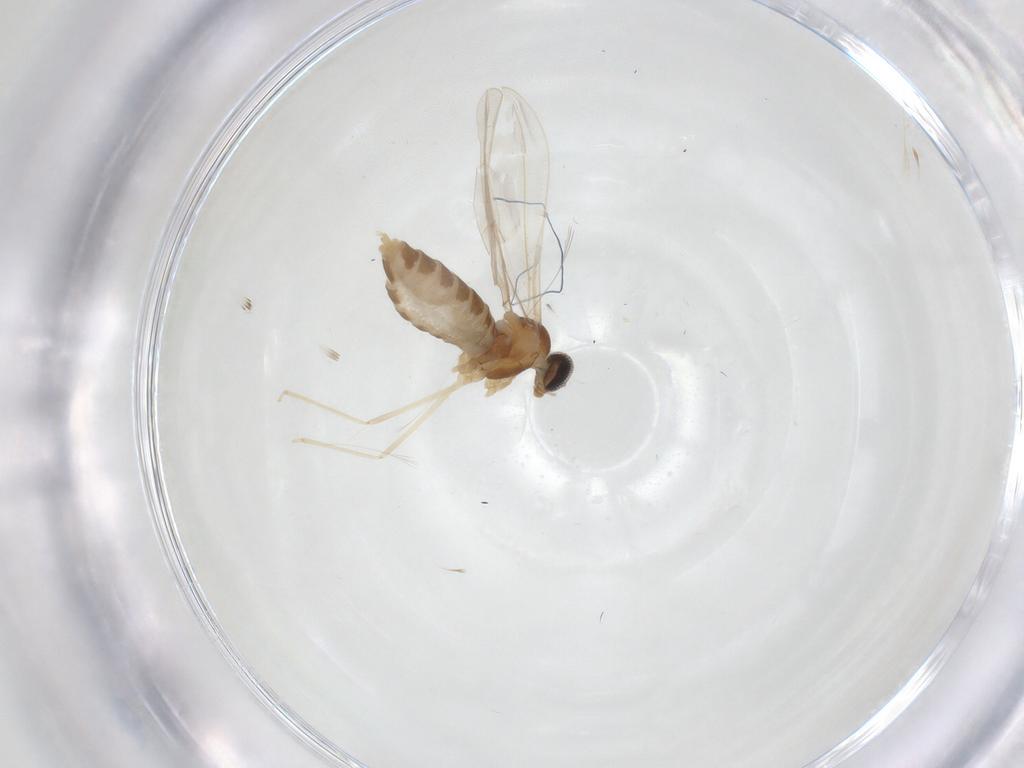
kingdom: Animalia
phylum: Arthropoda
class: Insecta
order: Diptera
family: Cecidomyiidae
